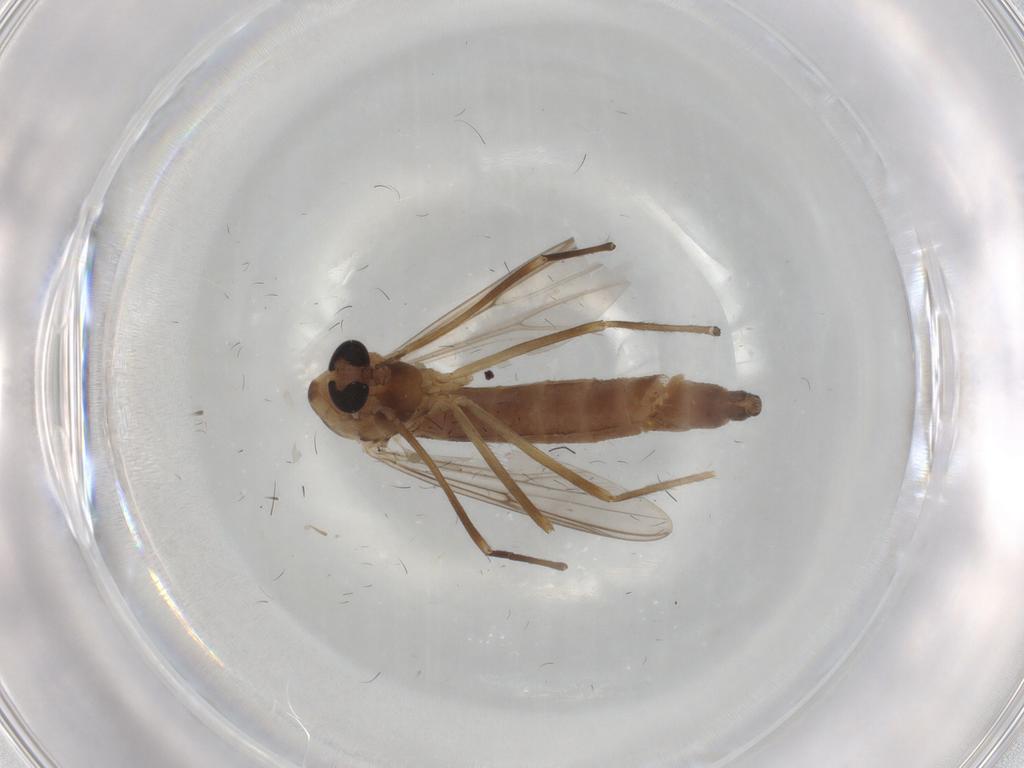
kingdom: Animalia
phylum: Arthropoda
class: Insecta
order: Diptera
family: Chironomidae
